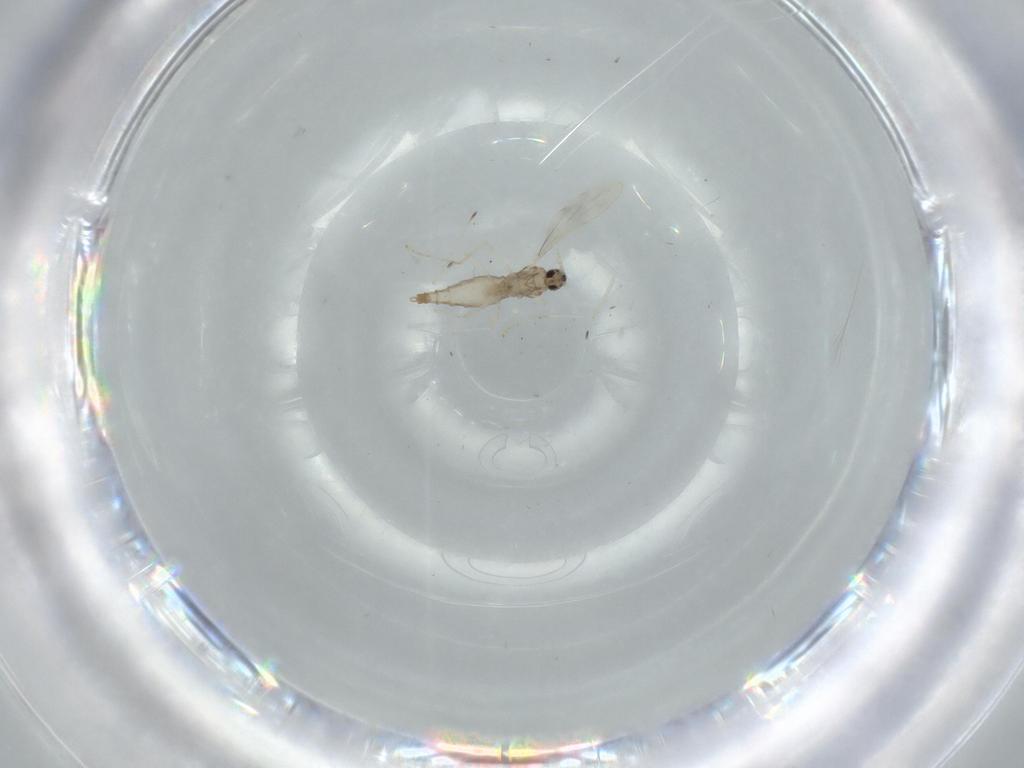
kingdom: Animalia
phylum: Arthropoda
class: Insecta
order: Diptera
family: Cecidomyiidae
